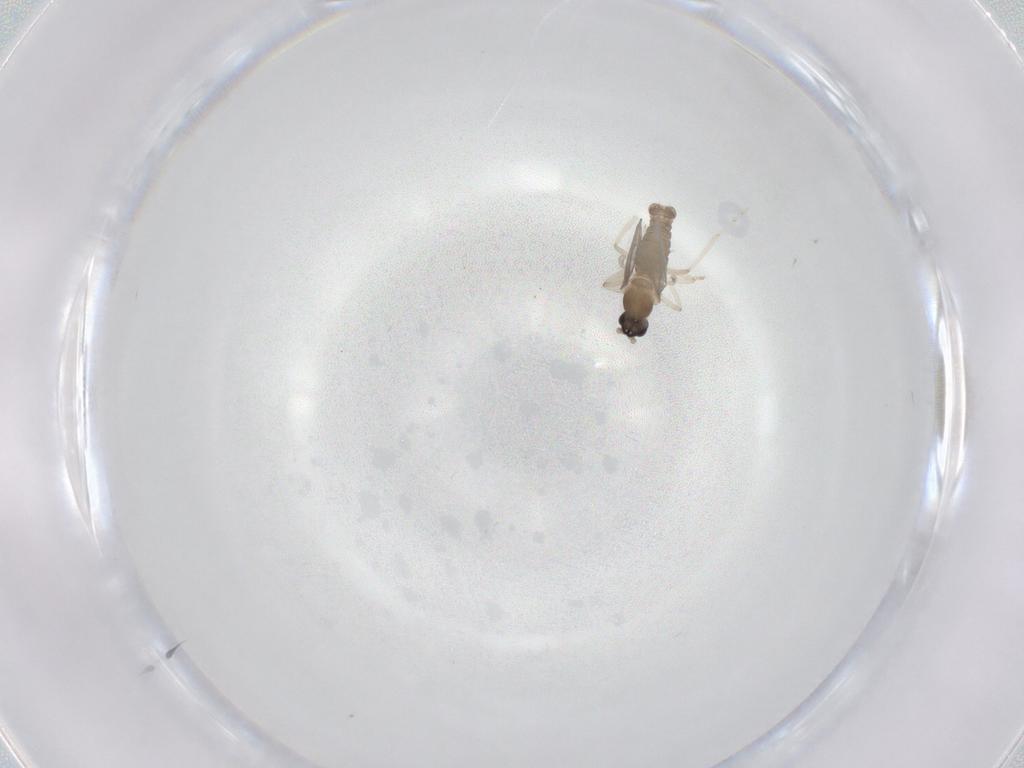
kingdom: Animalia
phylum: Arthropoda
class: Insecta
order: Diptera
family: Cecidomyiidae
